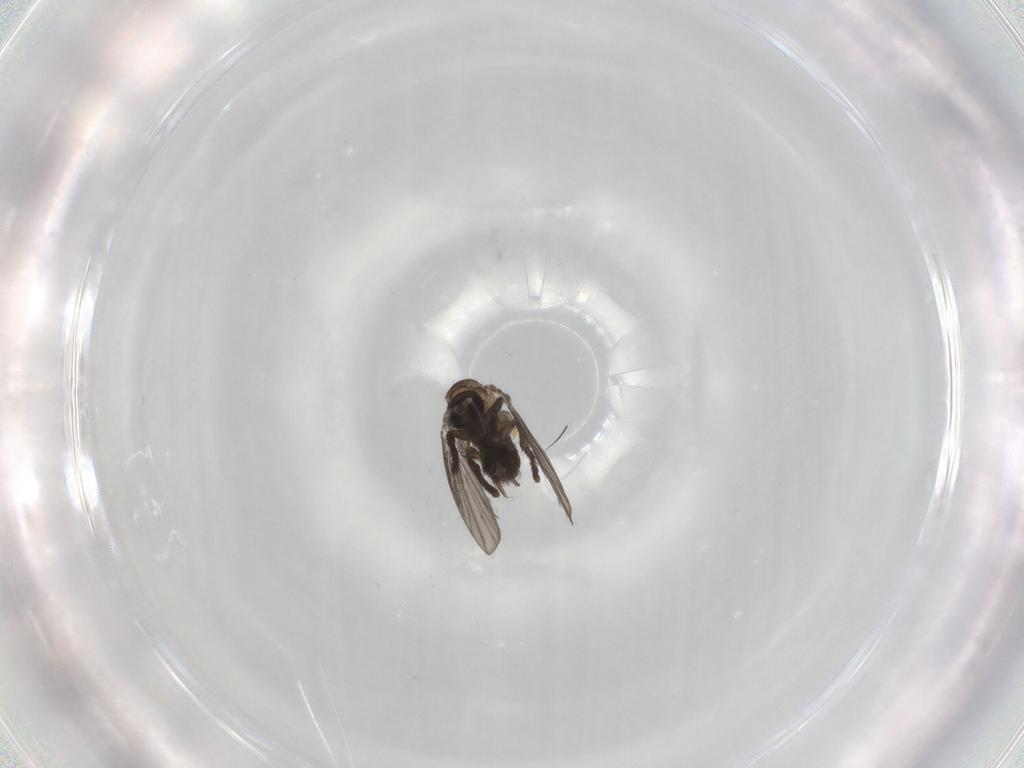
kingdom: Animalia
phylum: Arthropoda
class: Insecta
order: Diptera
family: Psychodidae
